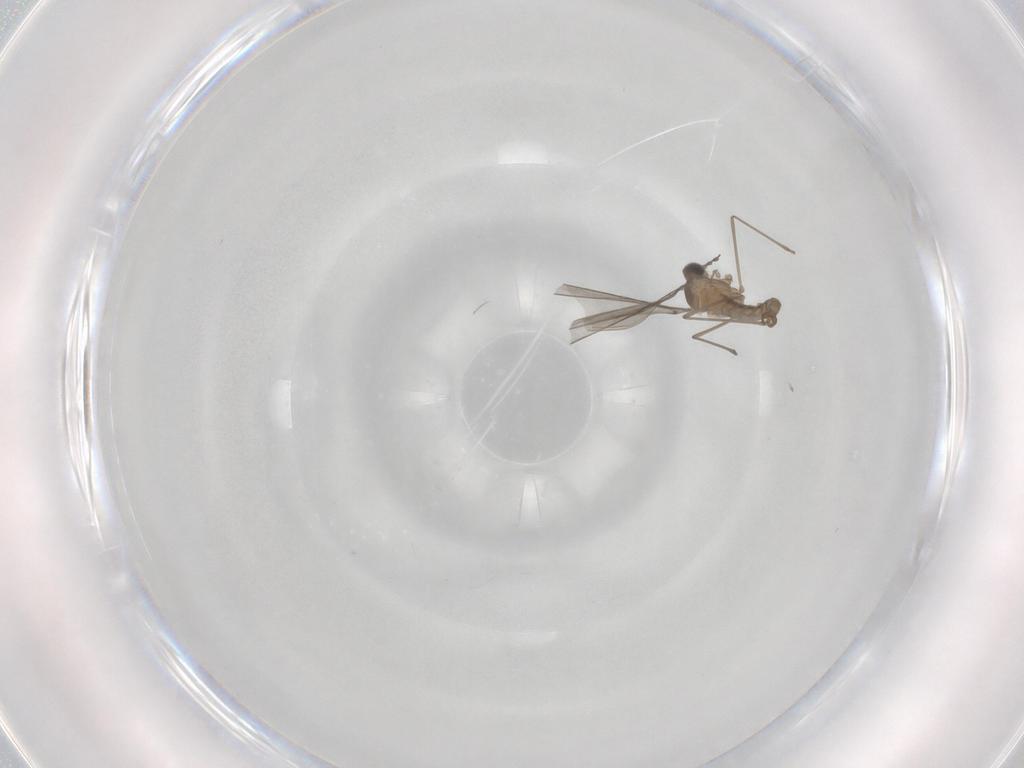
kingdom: Animalia
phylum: Arthropoda
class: Insecta
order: Diptera
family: Cecidomyiidae
